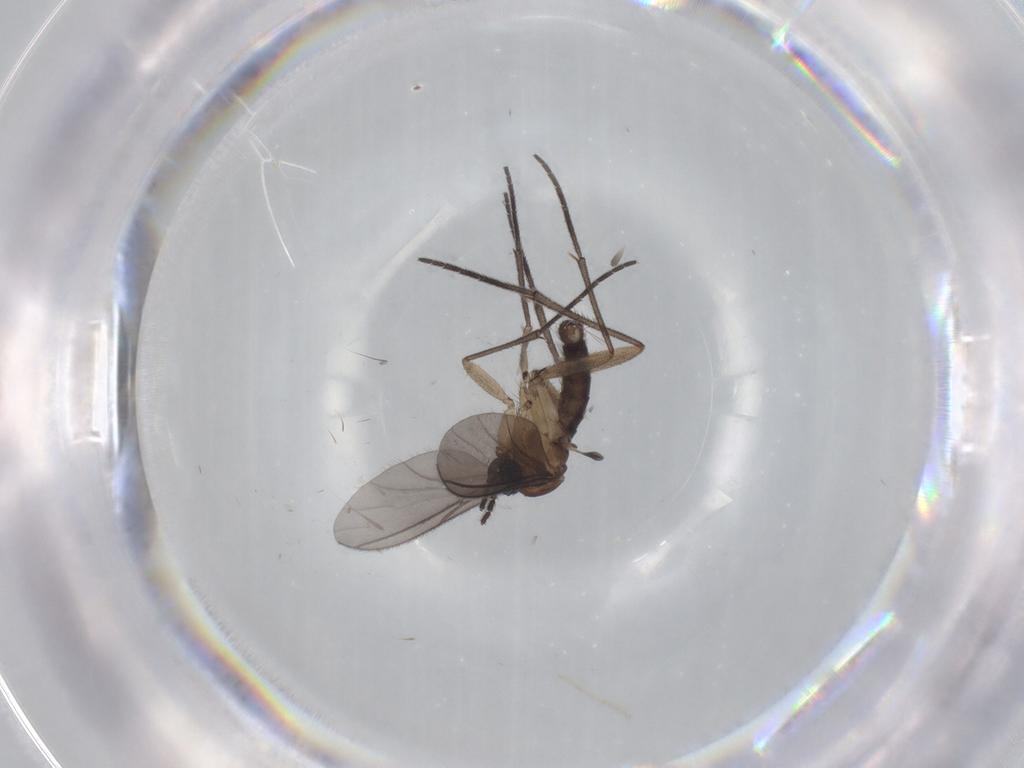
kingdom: Animalia
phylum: Arthropoda
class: Insecta
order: Diptera
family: Sciaridae
